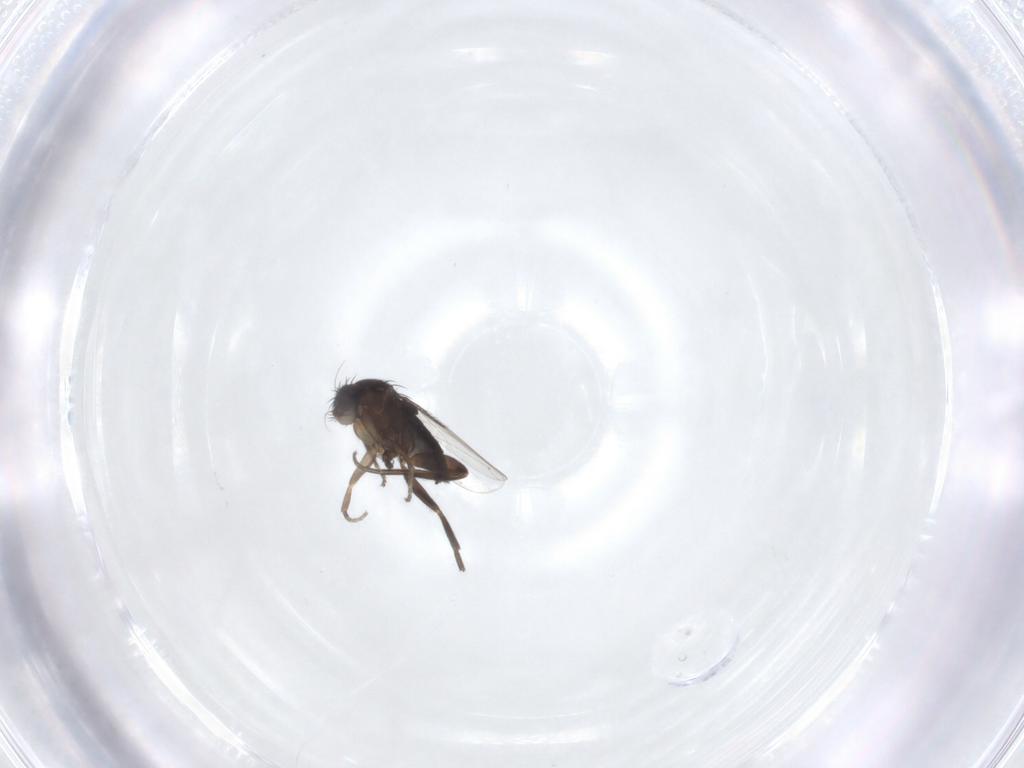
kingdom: Animalia
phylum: Arthropoda
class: Insecta
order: Diptera
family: Phoridae
